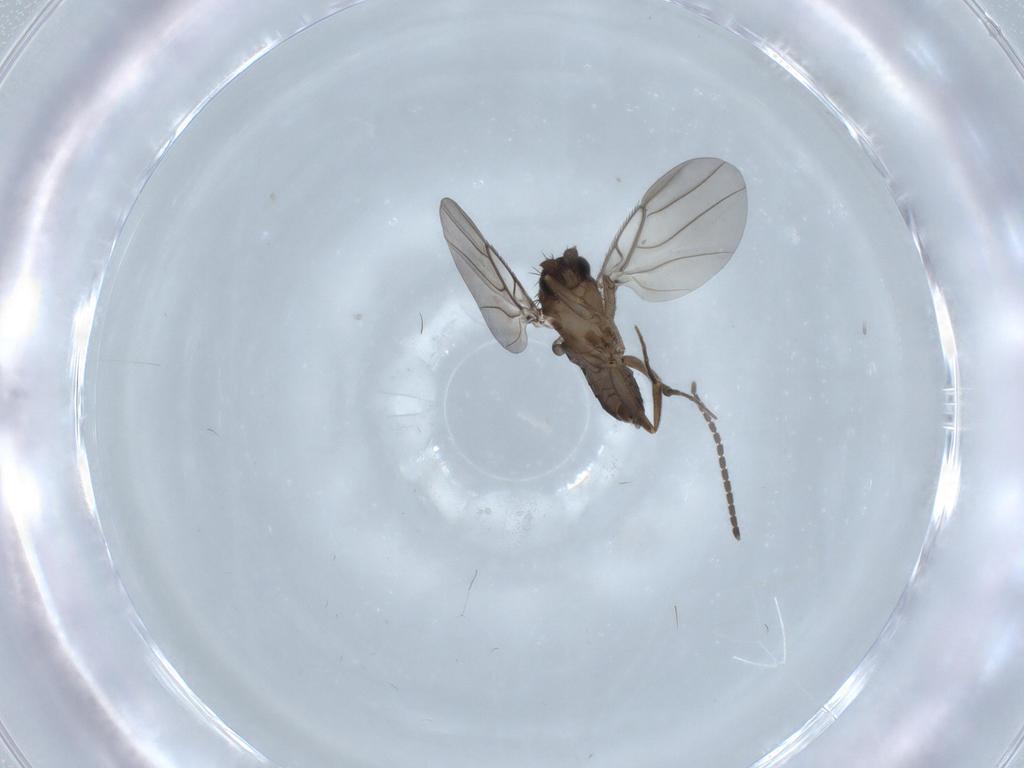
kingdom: Animalia
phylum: Arthropoda
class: Insecta
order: Diptera
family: Phoridae
